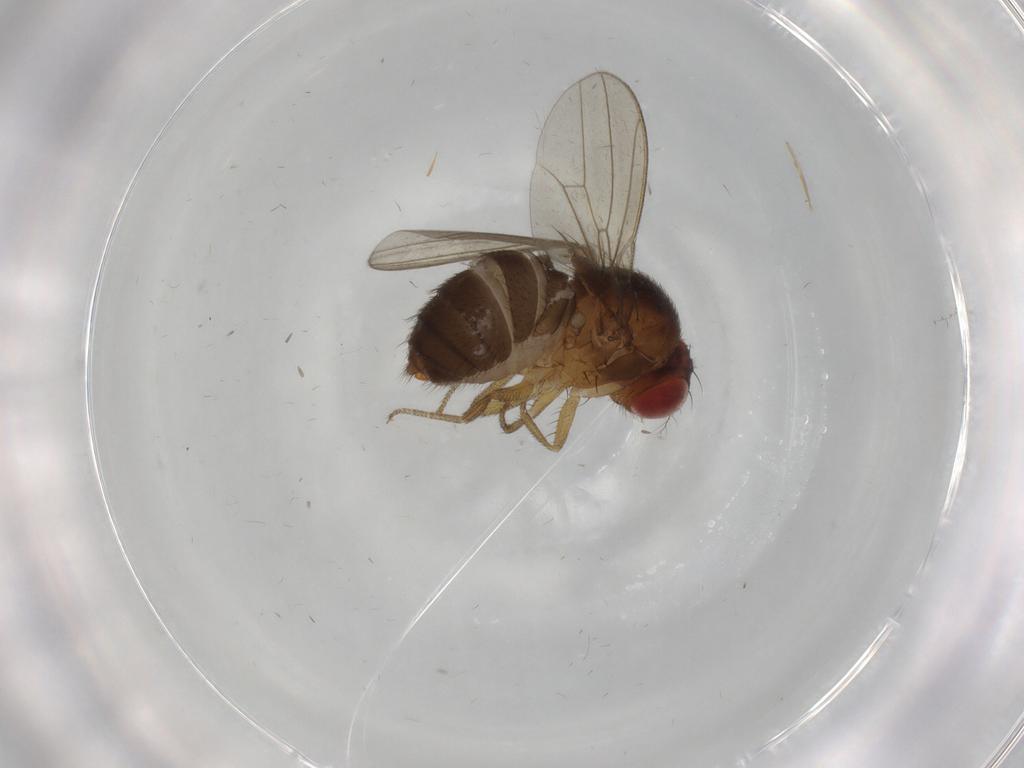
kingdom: Animalia
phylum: Arthropoda
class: Insecta
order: Diptera
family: Drosophilidae
